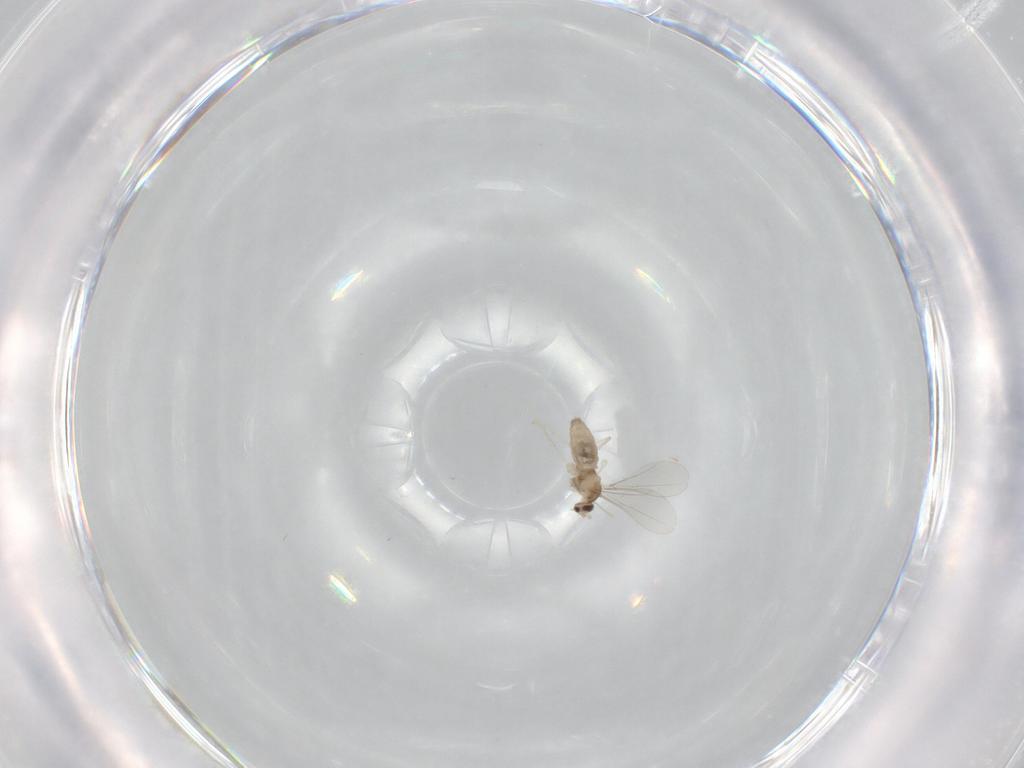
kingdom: Animalia
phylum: Arthropoda
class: Insecta
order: Diptera
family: Cecidomyiidae
